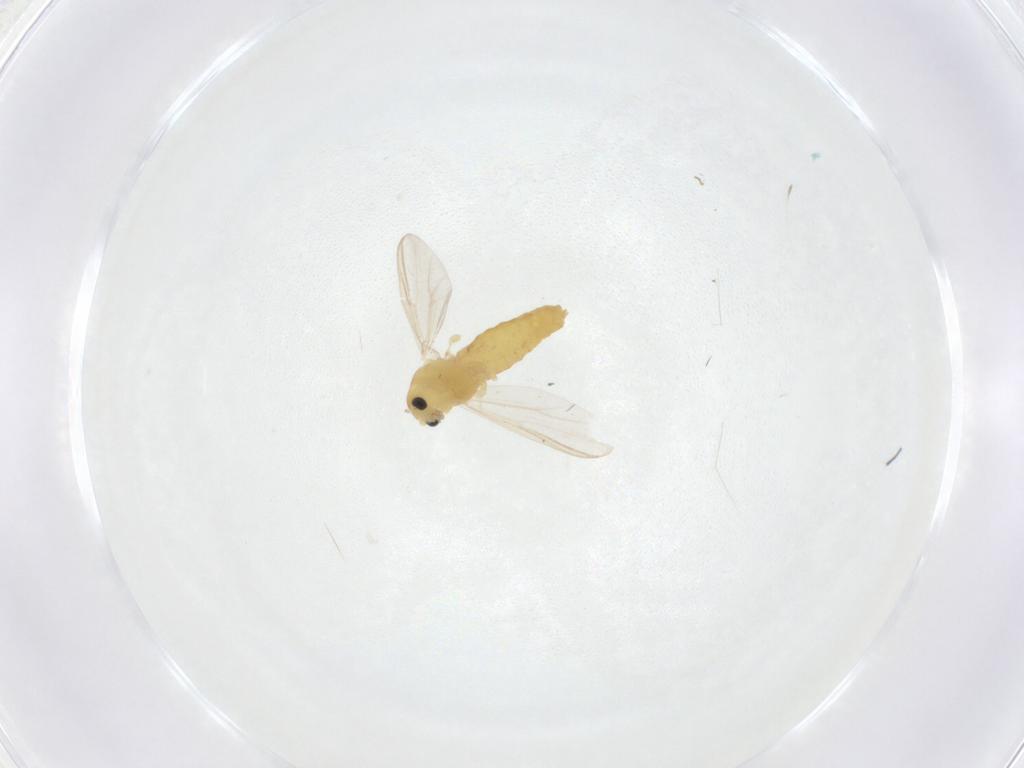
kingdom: Animalia
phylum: Arthropoda
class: Insecta
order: Diptera
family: Chironomidae
